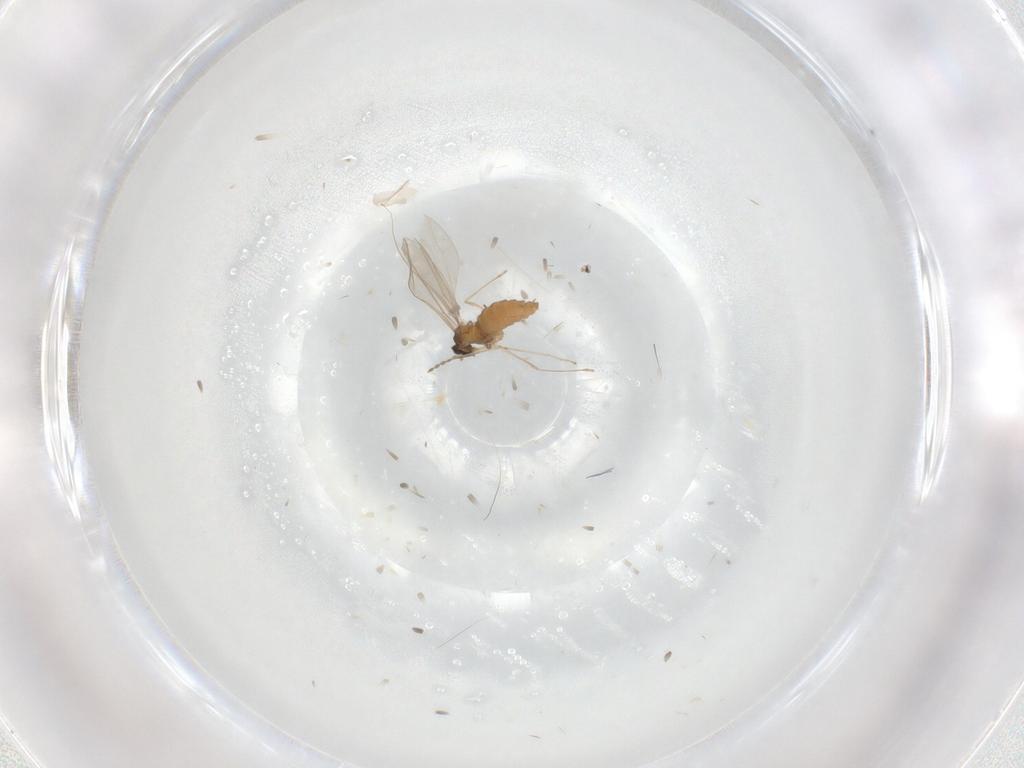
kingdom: Animalia
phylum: Arthropoda
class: Insecta
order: Diptera
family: Cecidomyiidae
